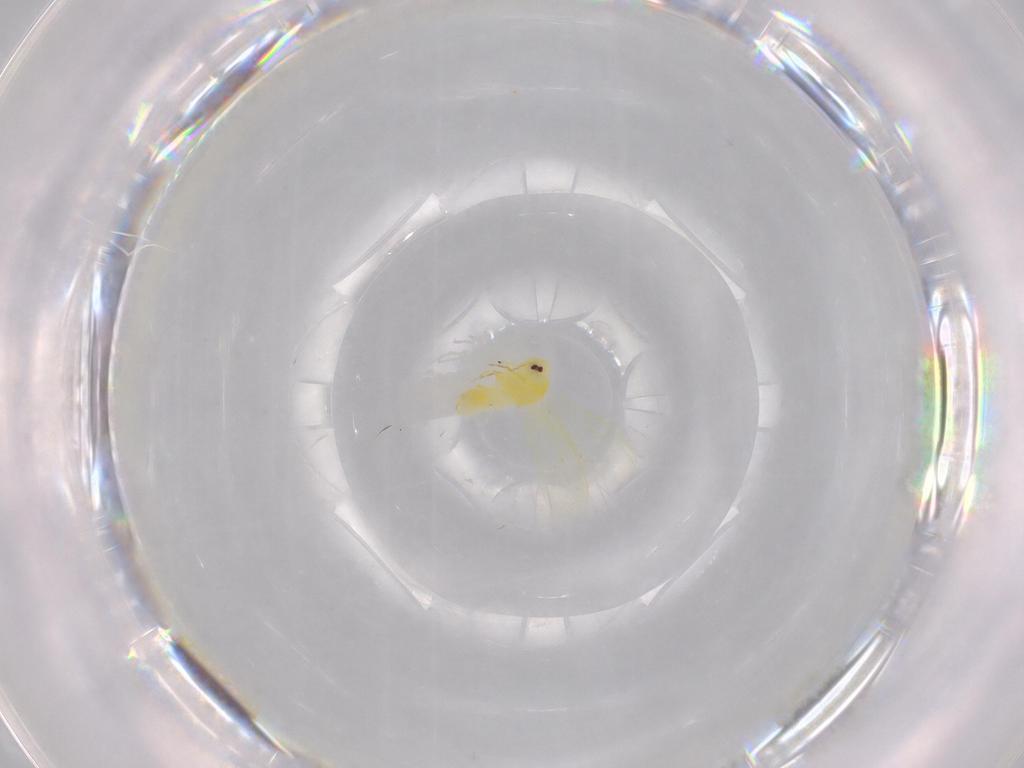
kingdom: Animalia
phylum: Arthropoda
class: Insecta
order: Hemiptera
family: Aleyrodidae
